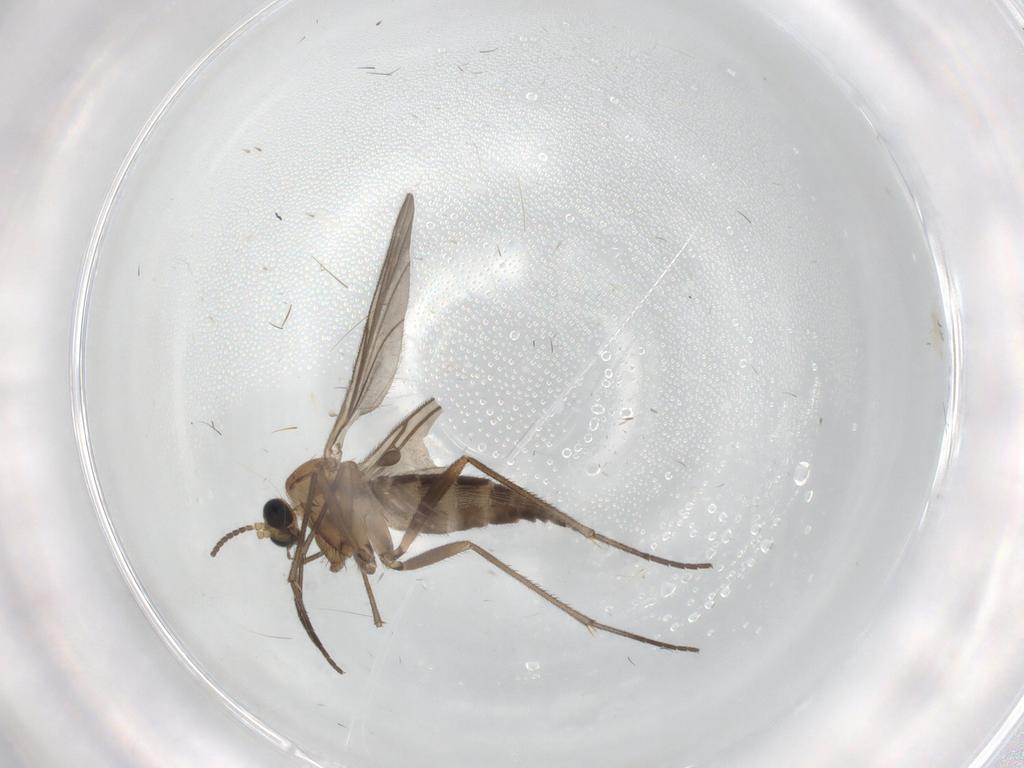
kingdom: Animalia
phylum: Arthropoda
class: Insecta
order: Diptera
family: Sciaridae
